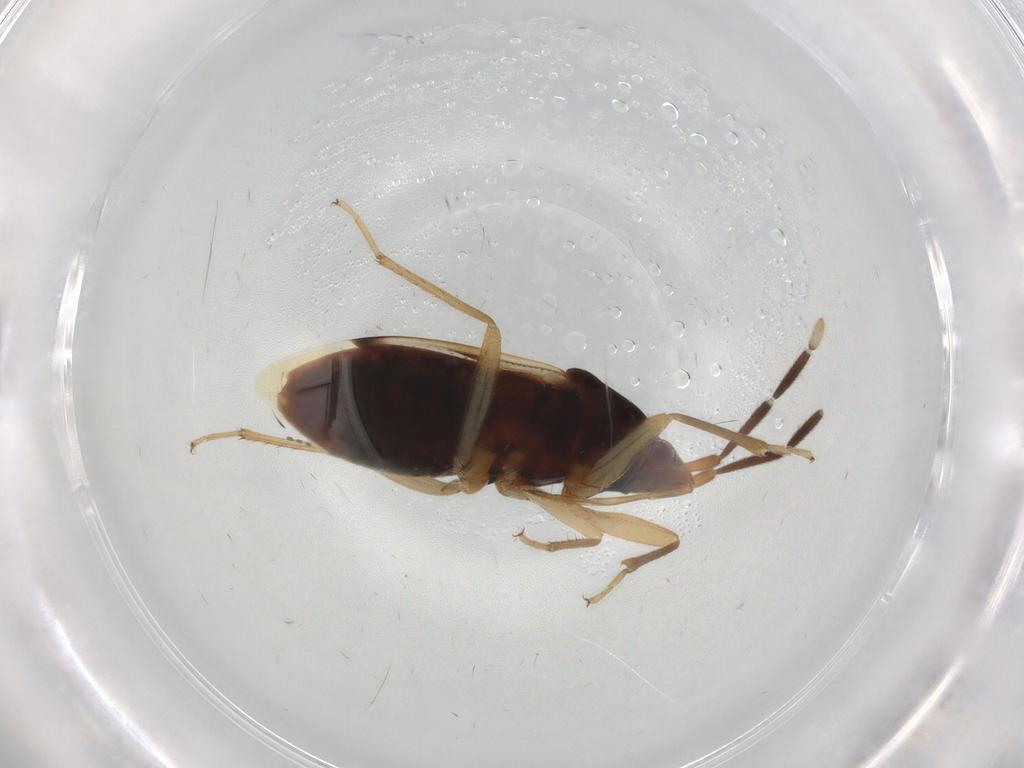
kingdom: Animalia
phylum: Arthropoda
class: Insecta
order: Hemiptera
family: Rhyparochromidae
